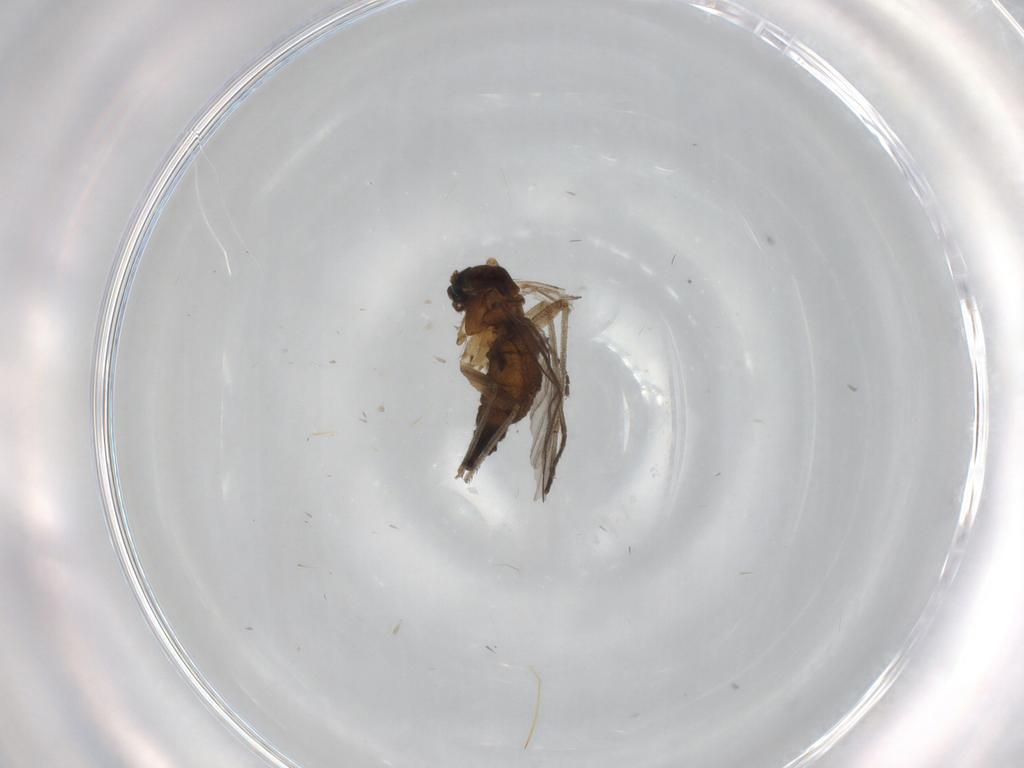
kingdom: Animalia
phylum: Arthropoda
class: Insecta
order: Diptera
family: Sciaridae
